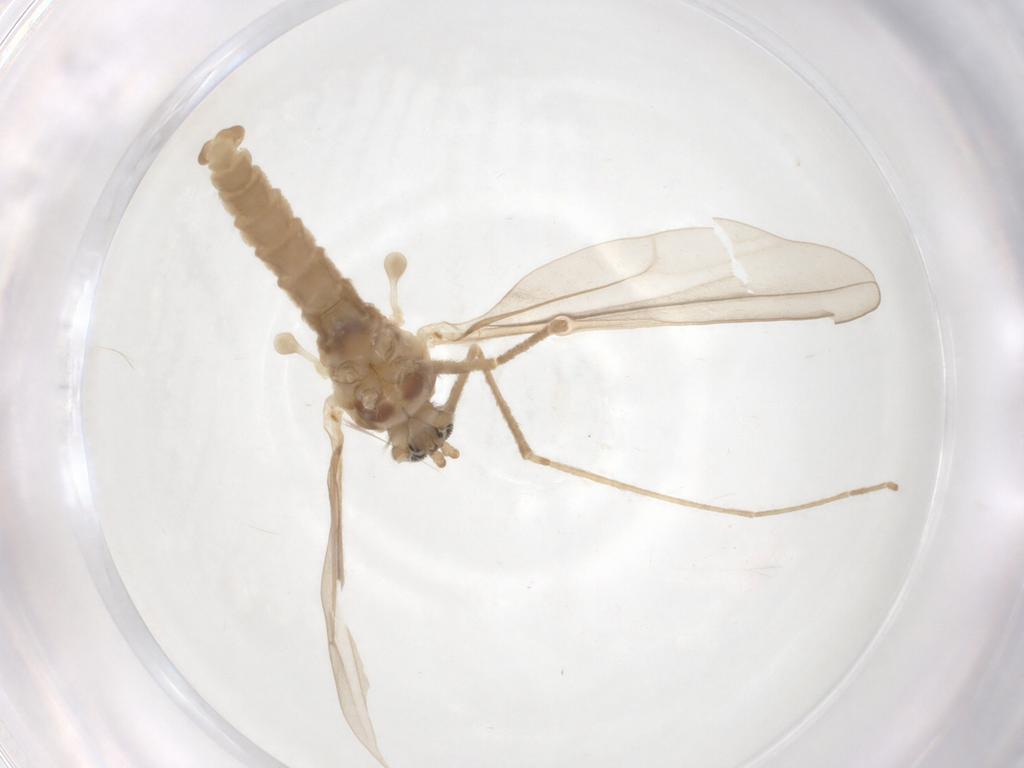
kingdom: Animalia
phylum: Arthropoda
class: Insecta
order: Diptera
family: Cecidomyiidae
